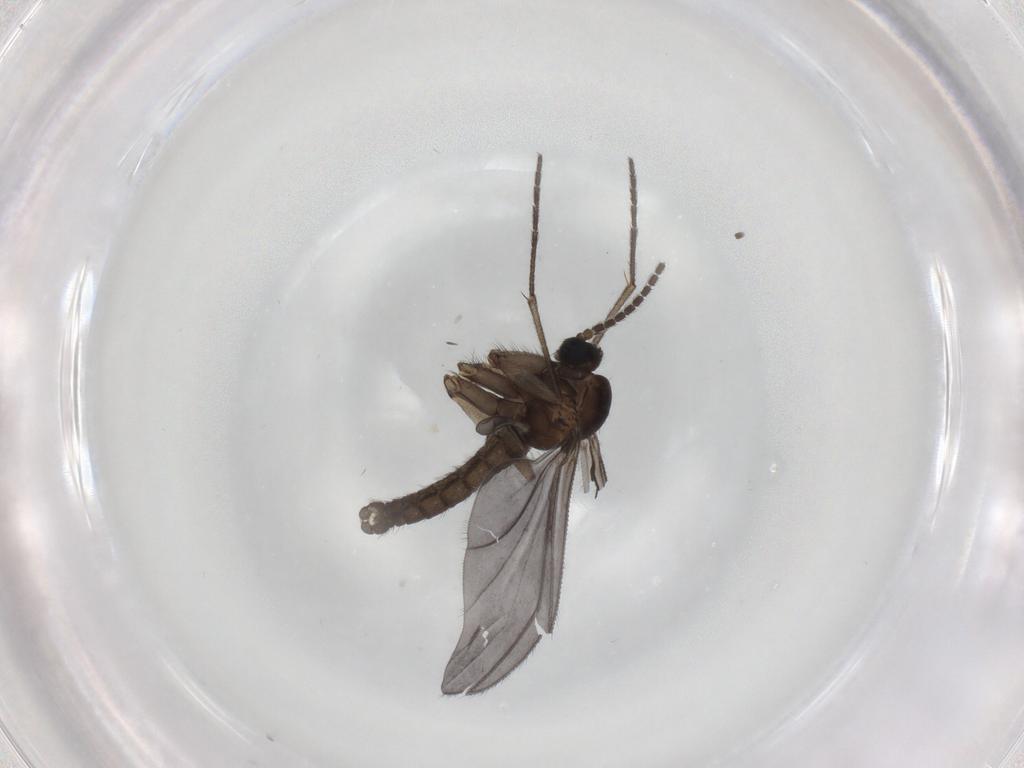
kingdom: Animalia
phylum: Arthropoda
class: Insecta
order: Diptera
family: Sciaridae
